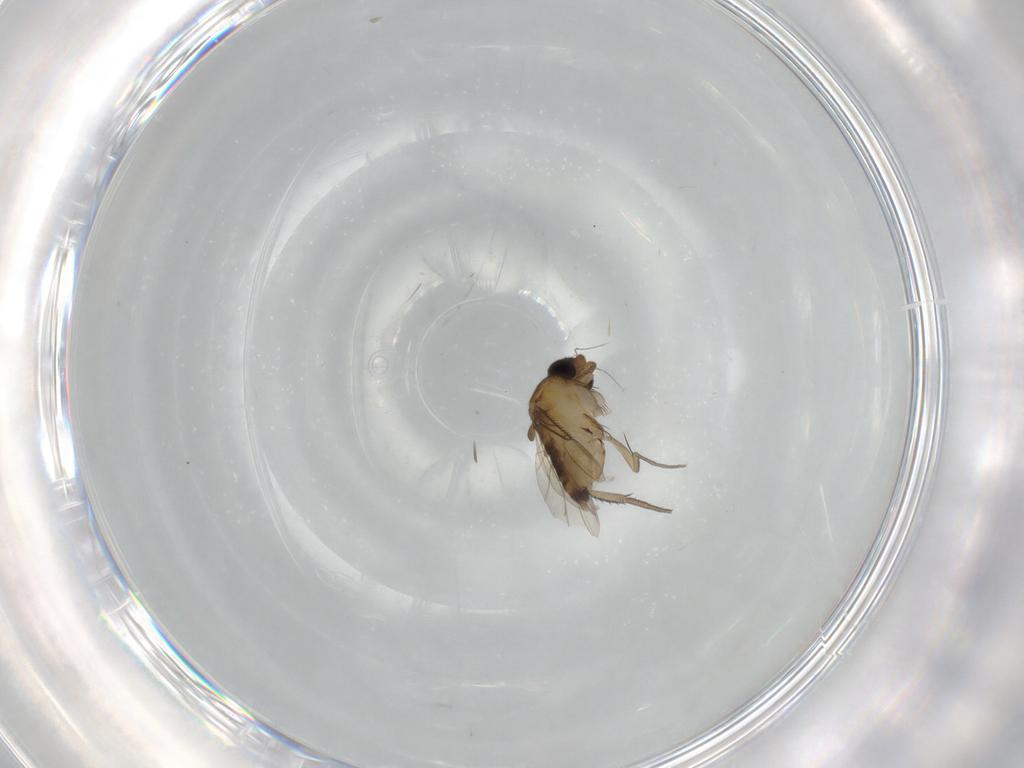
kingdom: Animalia
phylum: Arthropoda
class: Insecta
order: Diptera
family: Phoridae
